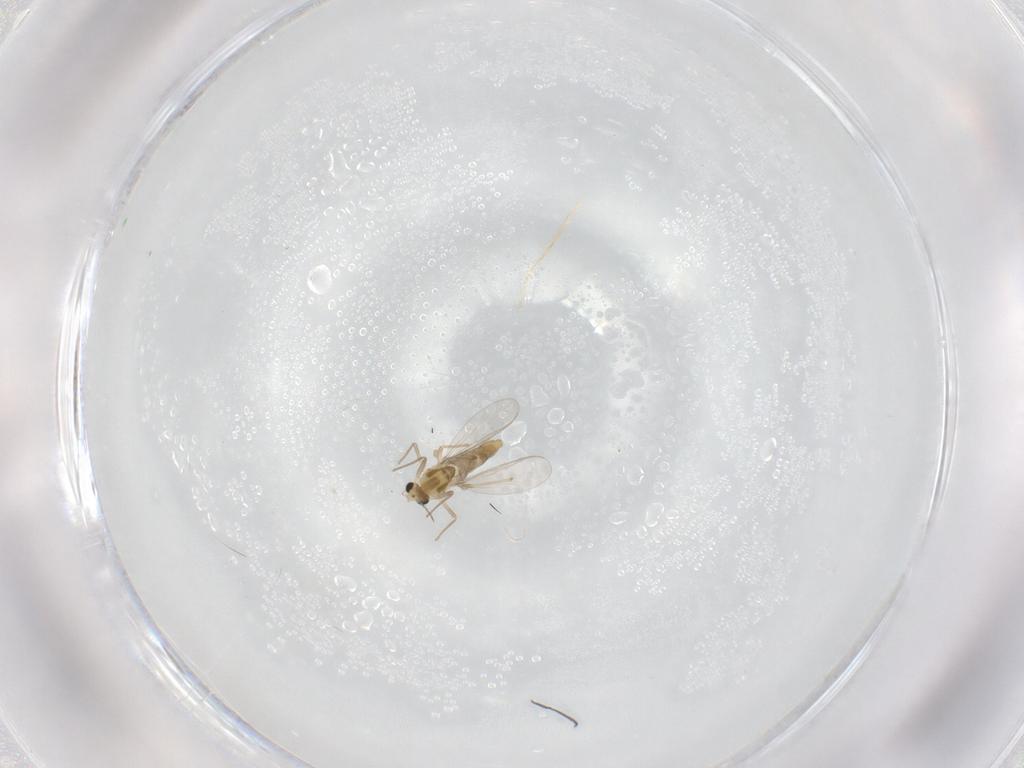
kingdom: Animalia
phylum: Arthropoda
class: Insecta
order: Diptera
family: Chironomidae
